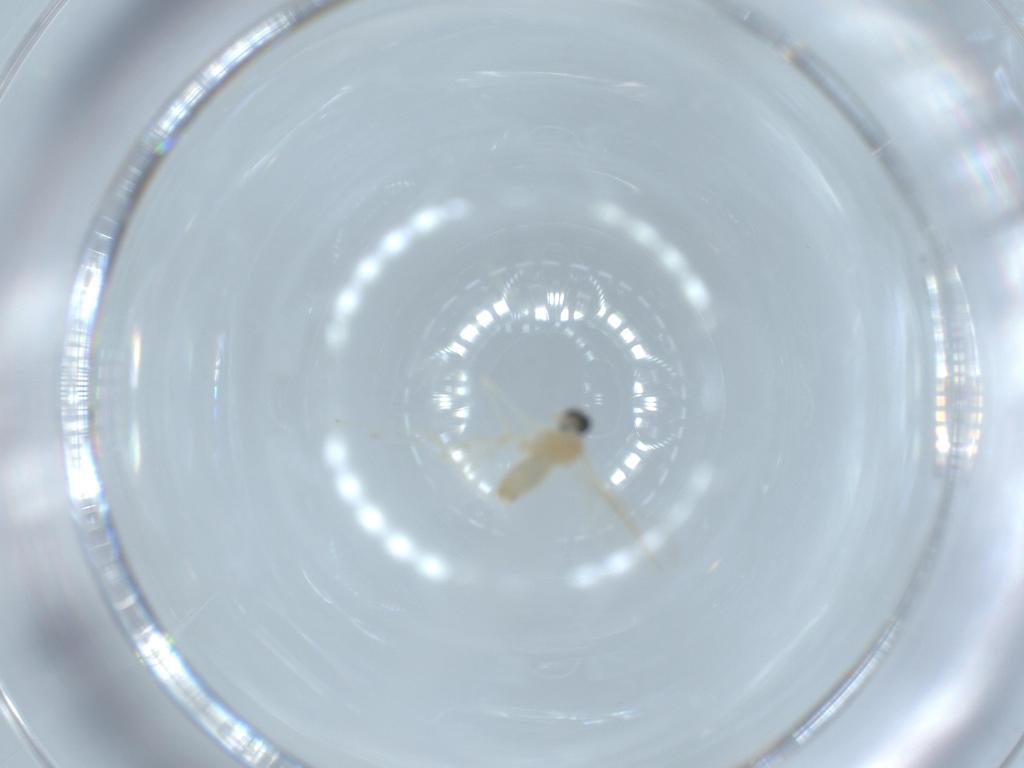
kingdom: Animalia
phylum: Arthropoda
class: Insecta
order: Diptera
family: Cecidomyiidae
